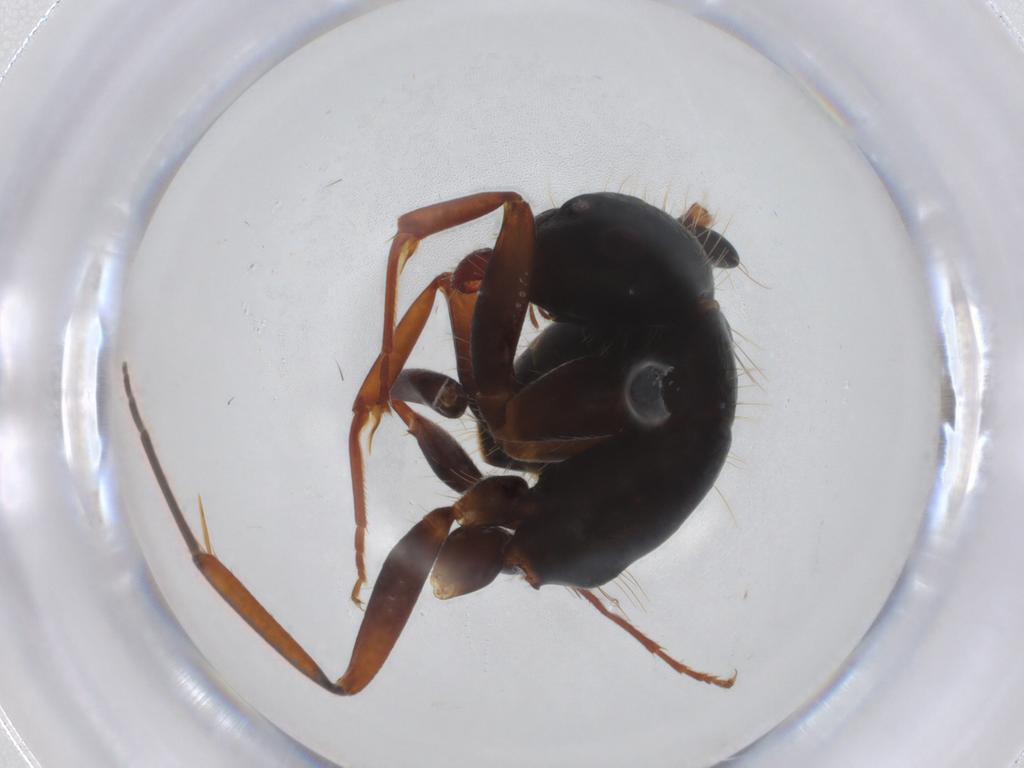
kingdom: Animalia
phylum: Arthropoda
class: Insecta
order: Hymenoptera
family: Formicidae
